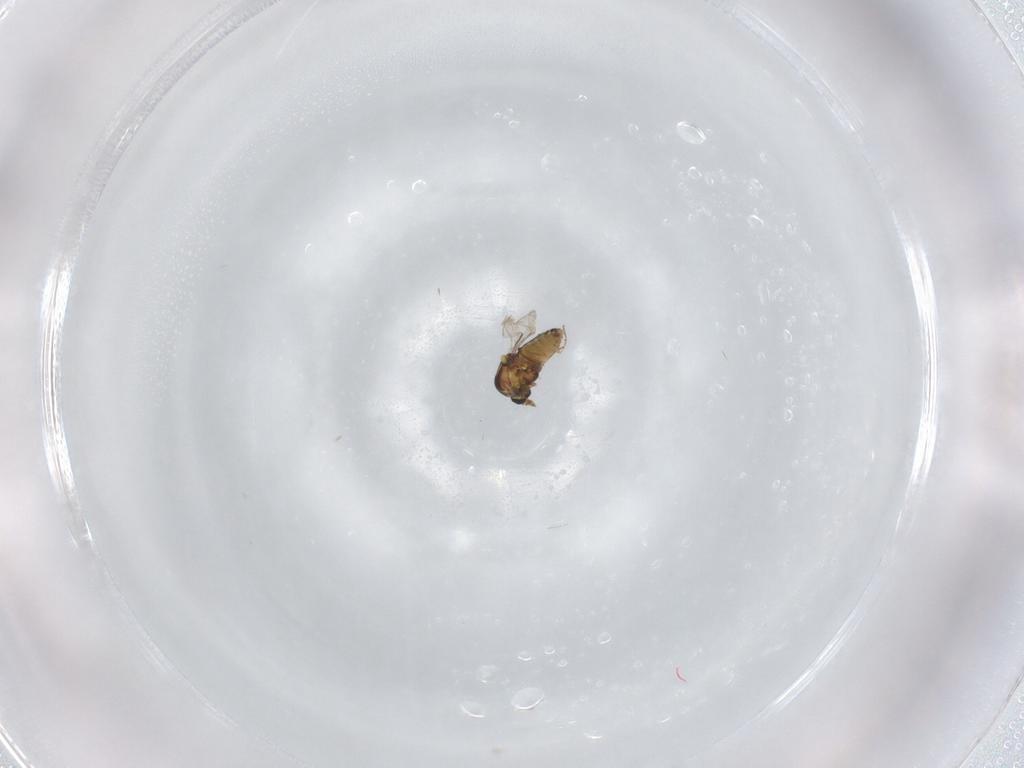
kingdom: Animalia
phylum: Arthropoda
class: Insecta
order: Diptera
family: Ceratopogonidae
